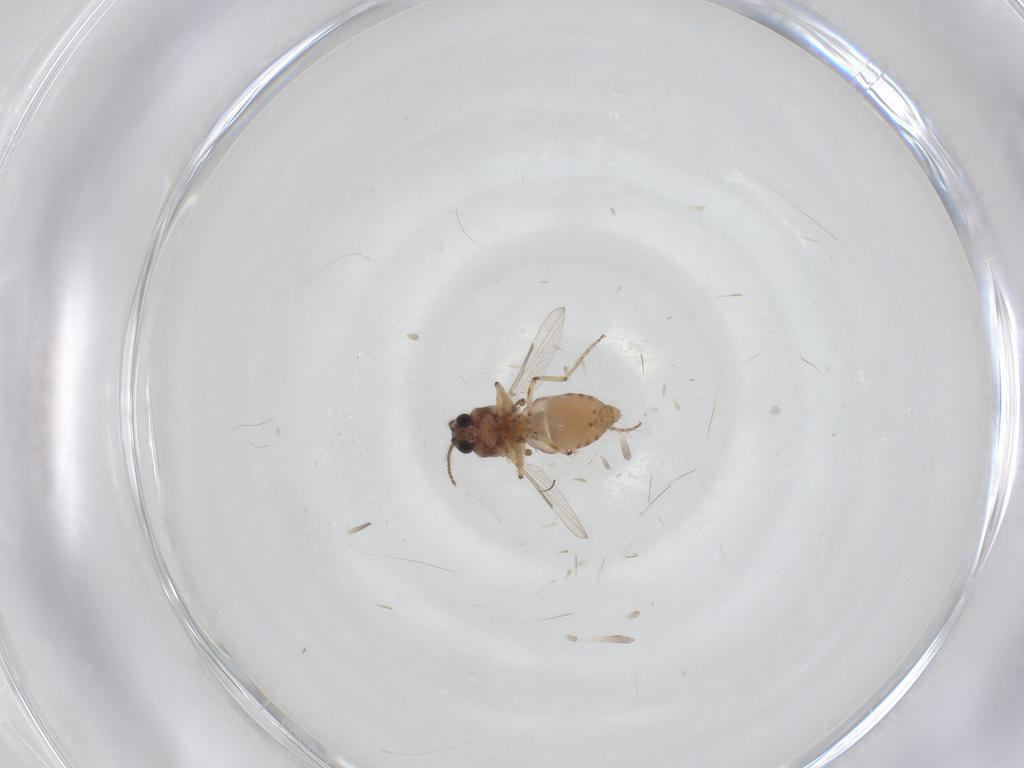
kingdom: Animalia
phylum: Arthropoda
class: Insecta
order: Diptera
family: Ceratopogonidae
